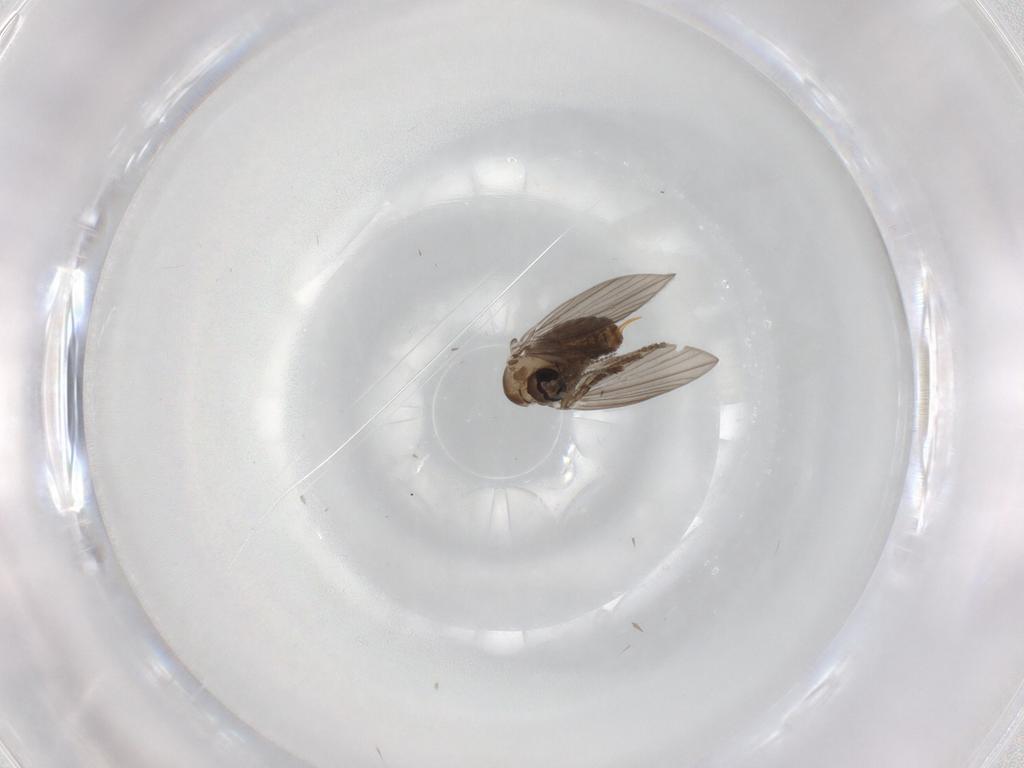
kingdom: Animalia
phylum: Arthropoda
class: Insecta
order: Diptera
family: Psychodidae
